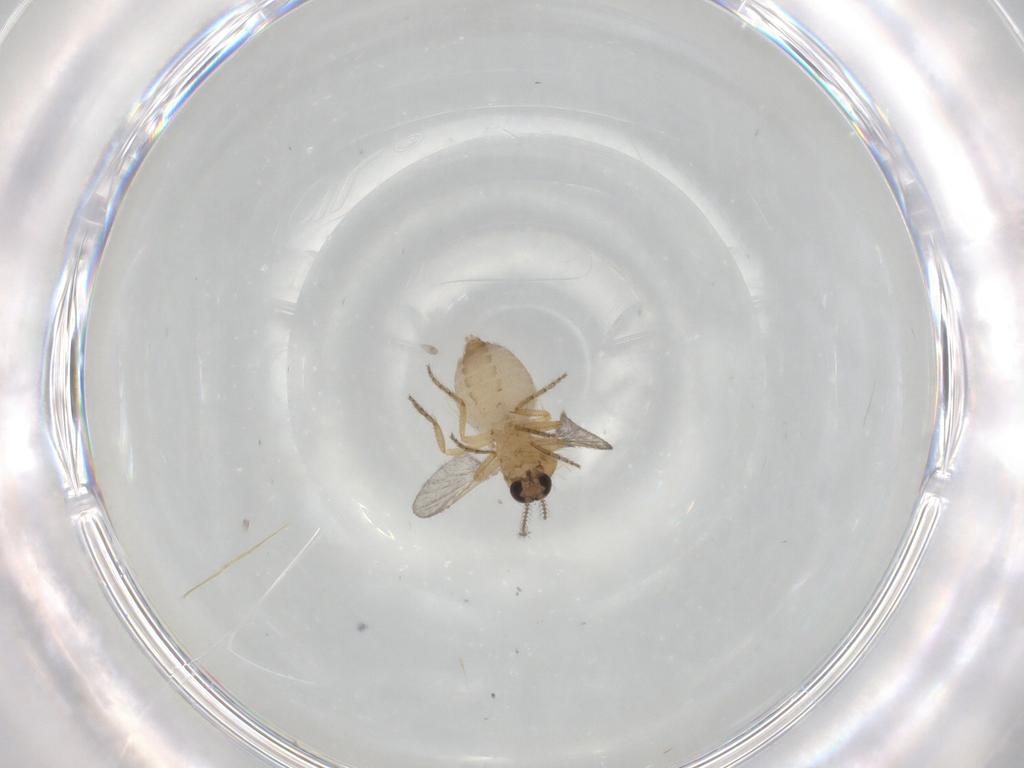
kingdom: Animalia
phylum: Arthropoda
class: Insecta
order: Diptera
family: Ceratopogonidae
